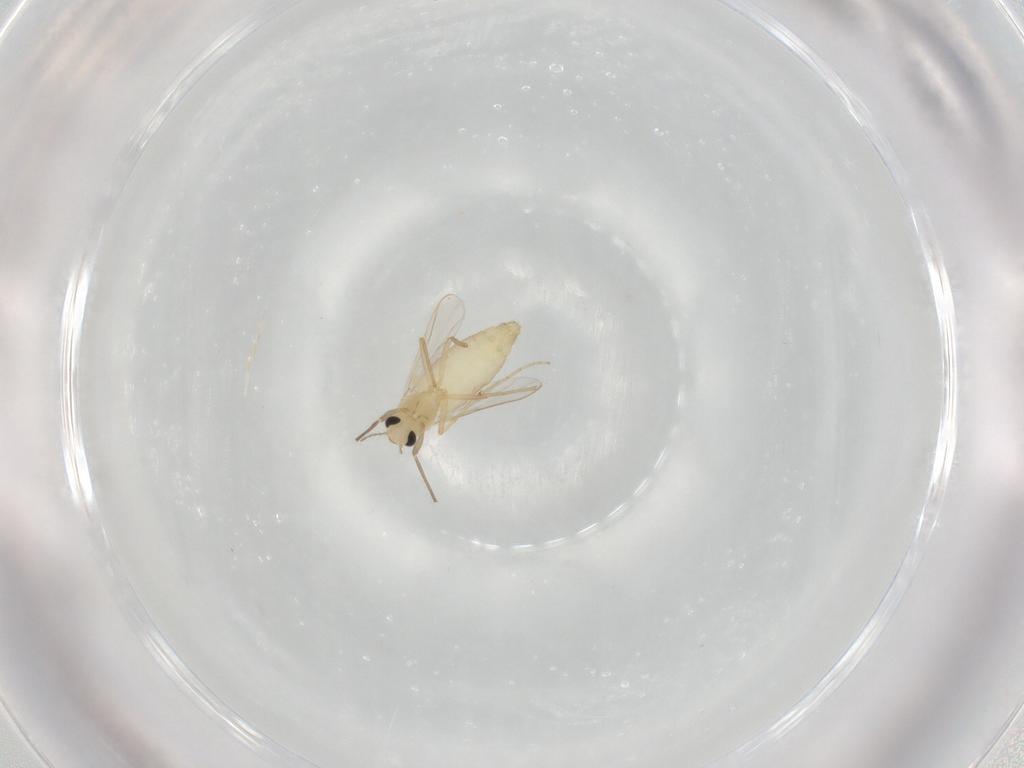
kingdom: Animalia
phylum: Arthropoda
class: Insecta
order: Diptera
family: Chironomidae
